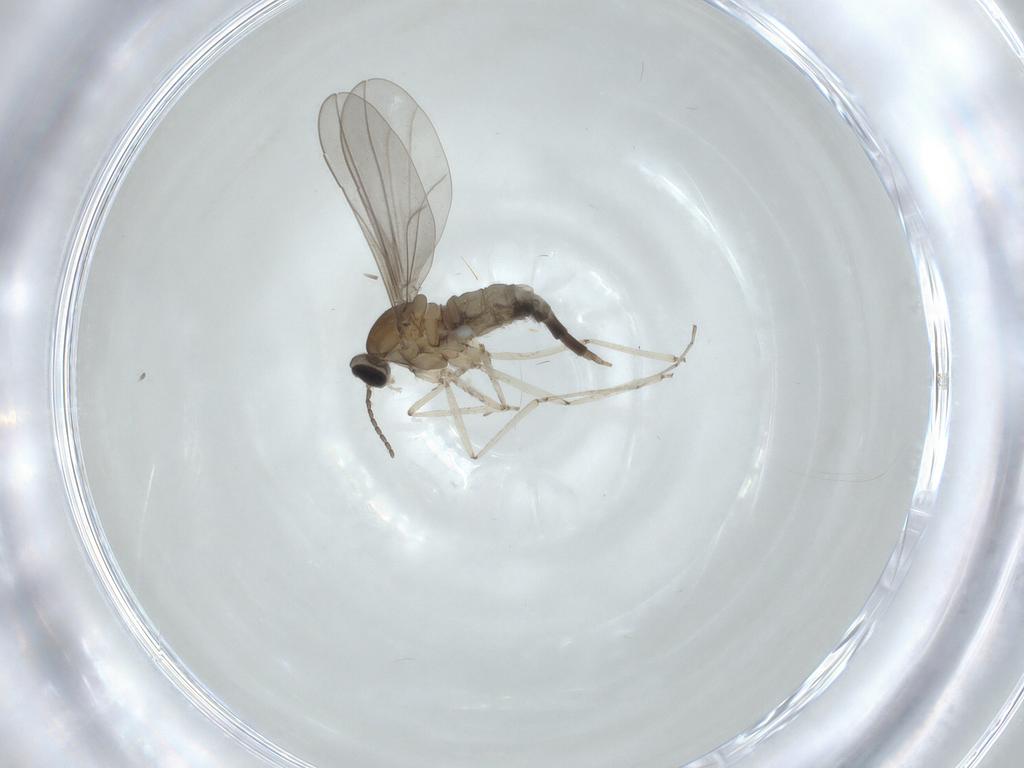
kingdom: Animalia
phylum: Arthropoda
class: Insecta
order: Diptera
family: Cecidomyiidae
